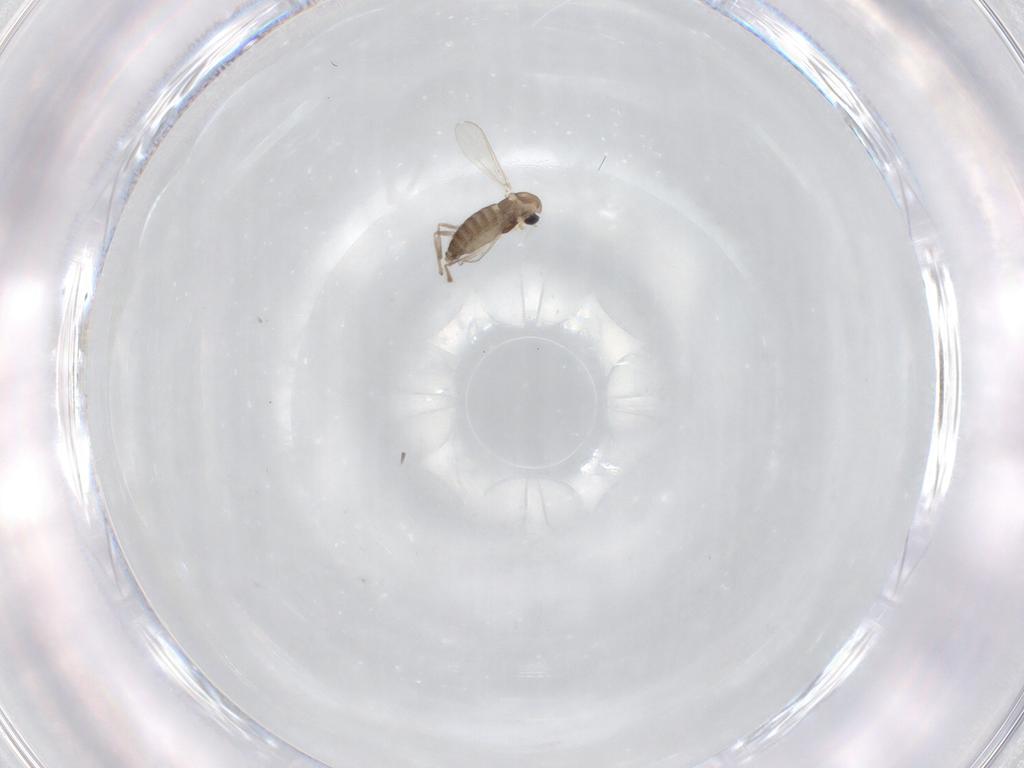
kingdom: Animalia
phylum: Arthropoda
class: Insecta
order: Diptera
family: Chironomidae
